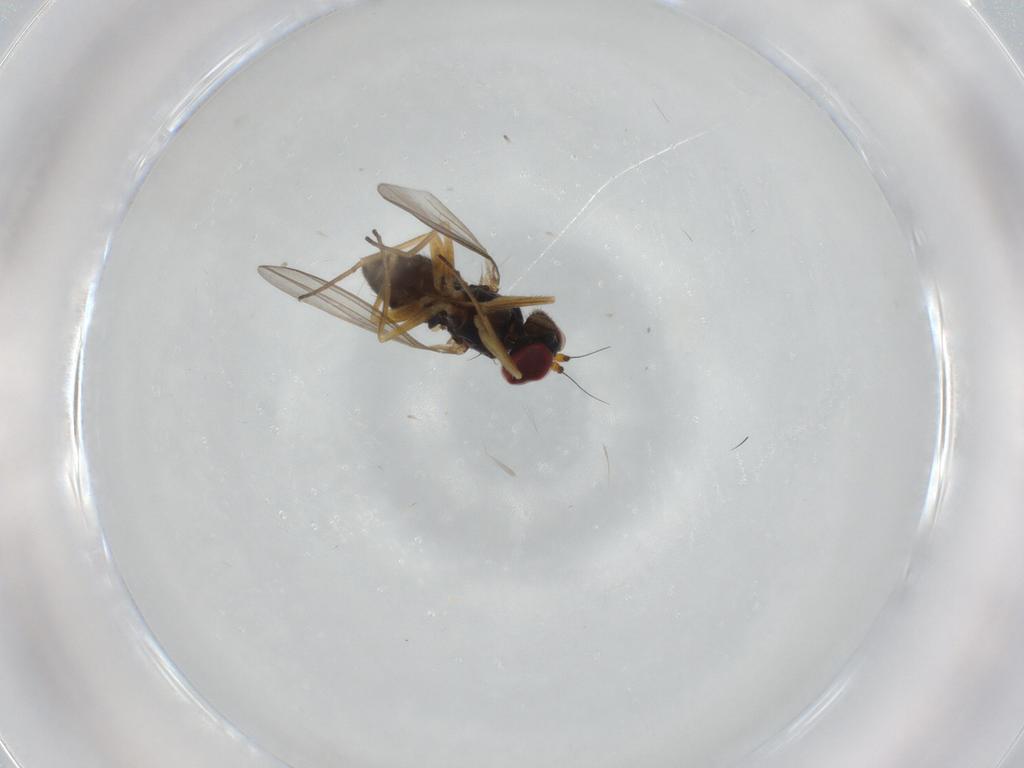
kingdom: Animalia
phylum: Arthropoda
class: Insecta
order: Diptera
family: Dolichopodidae
